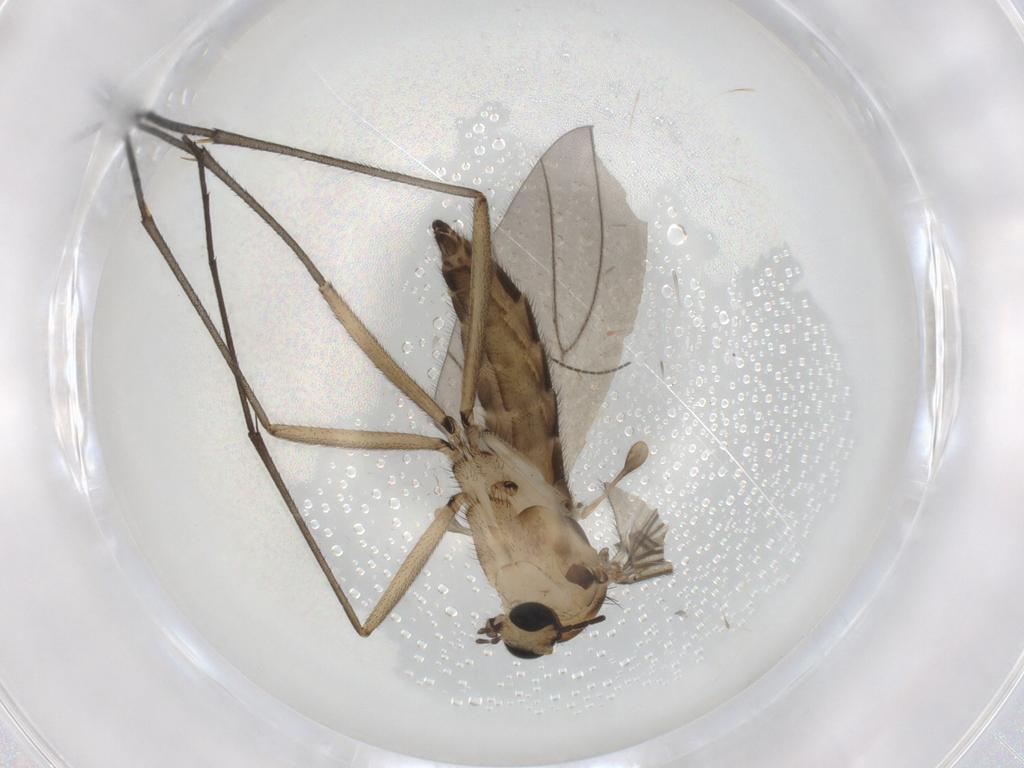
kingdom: Animalia
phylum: Arthropoda
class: Insecta
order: Diptera
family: Sciaridae
